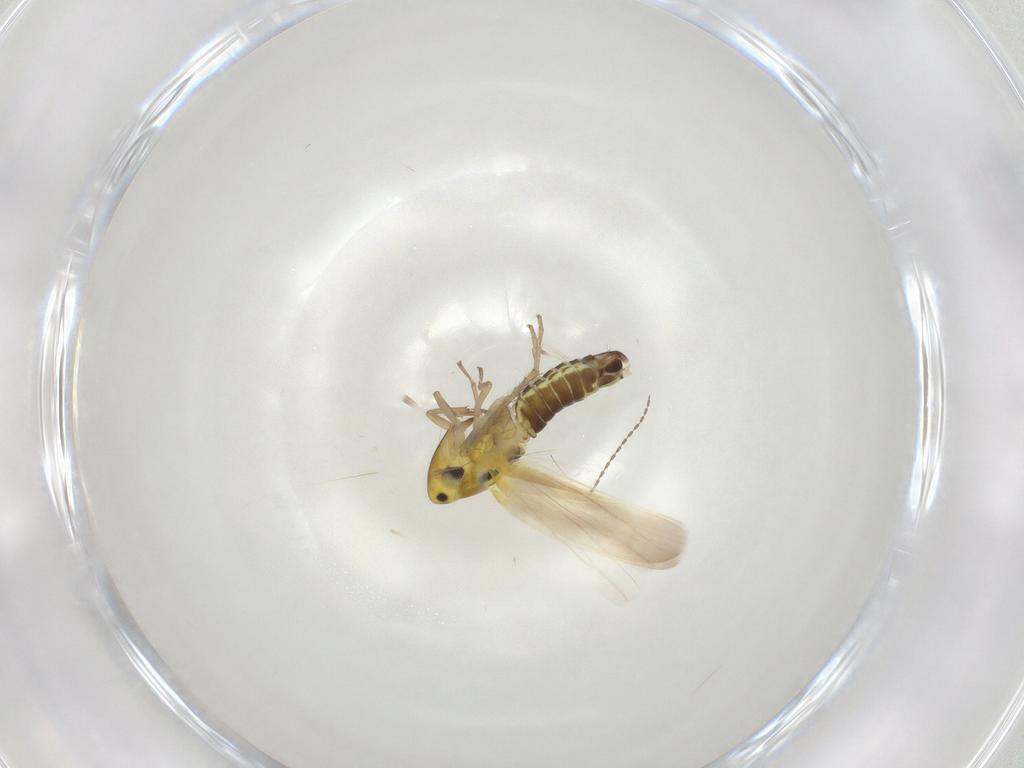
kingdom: Animalia
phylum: Arthropoda
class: Insecta
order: Hemiptera
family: Cicadellidae
